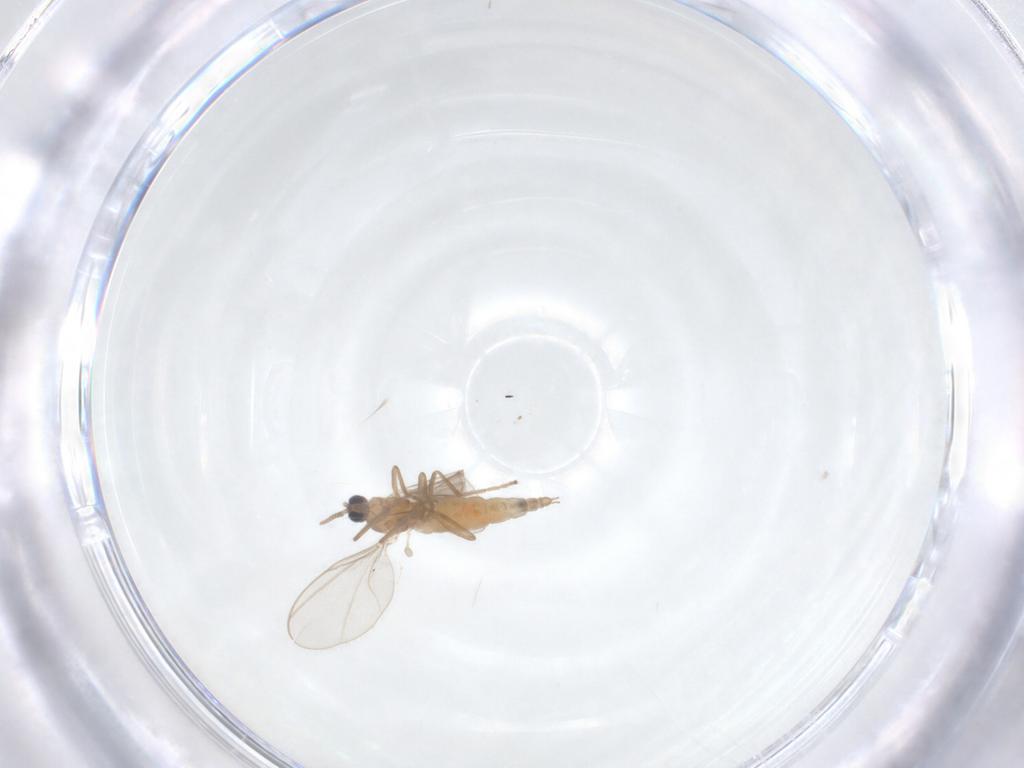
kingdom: Animalia
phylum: Arthropoda
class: Insecta
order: Diptera
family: Cecidomyiidae
